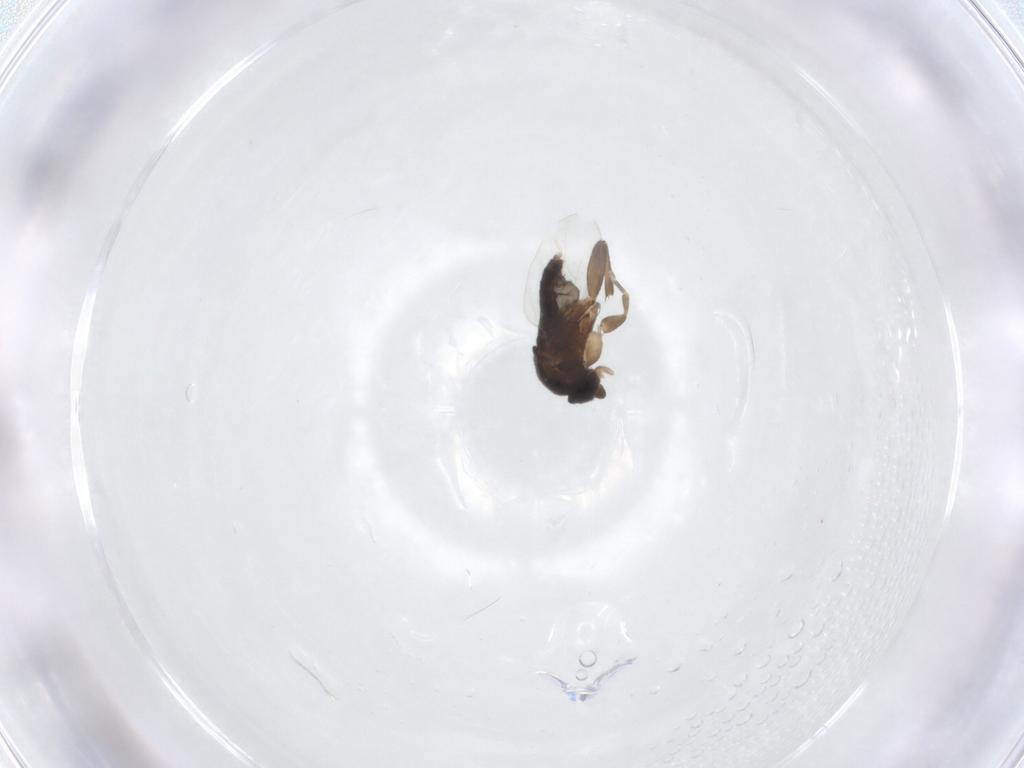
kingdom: Animalia
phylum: Arthropoda
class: Insecta
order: Diptera
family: Phoridae
